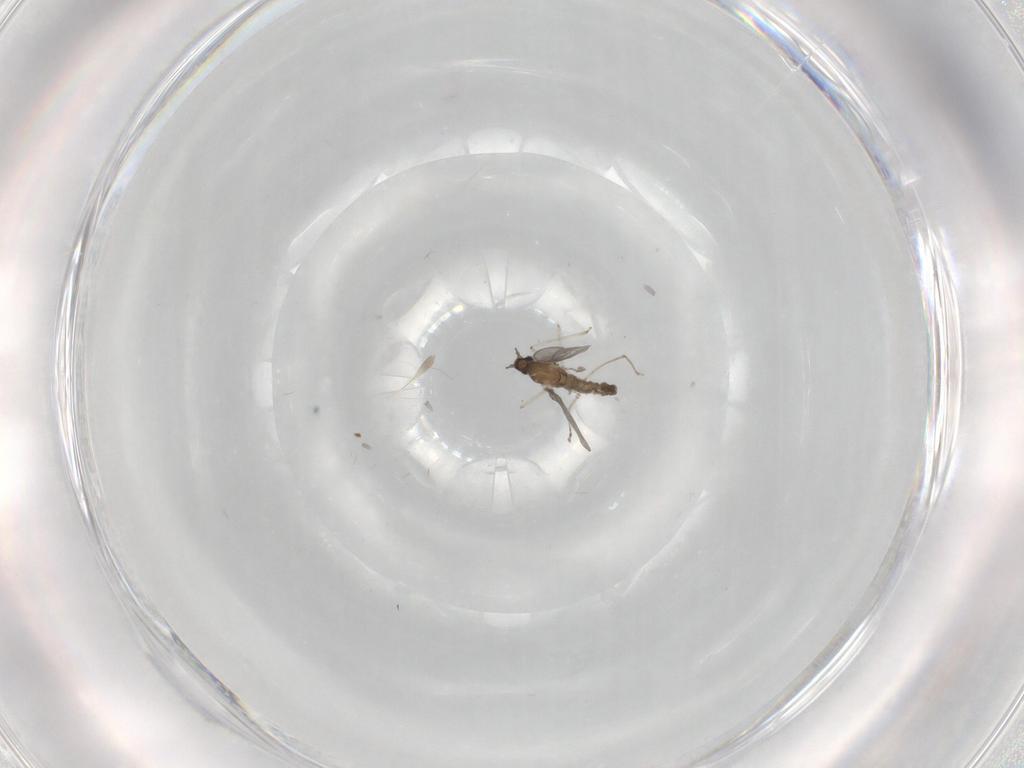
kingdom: Animalia
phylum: Arthropoda
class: Insecta
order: Diptera
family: Cecidomyiidae
